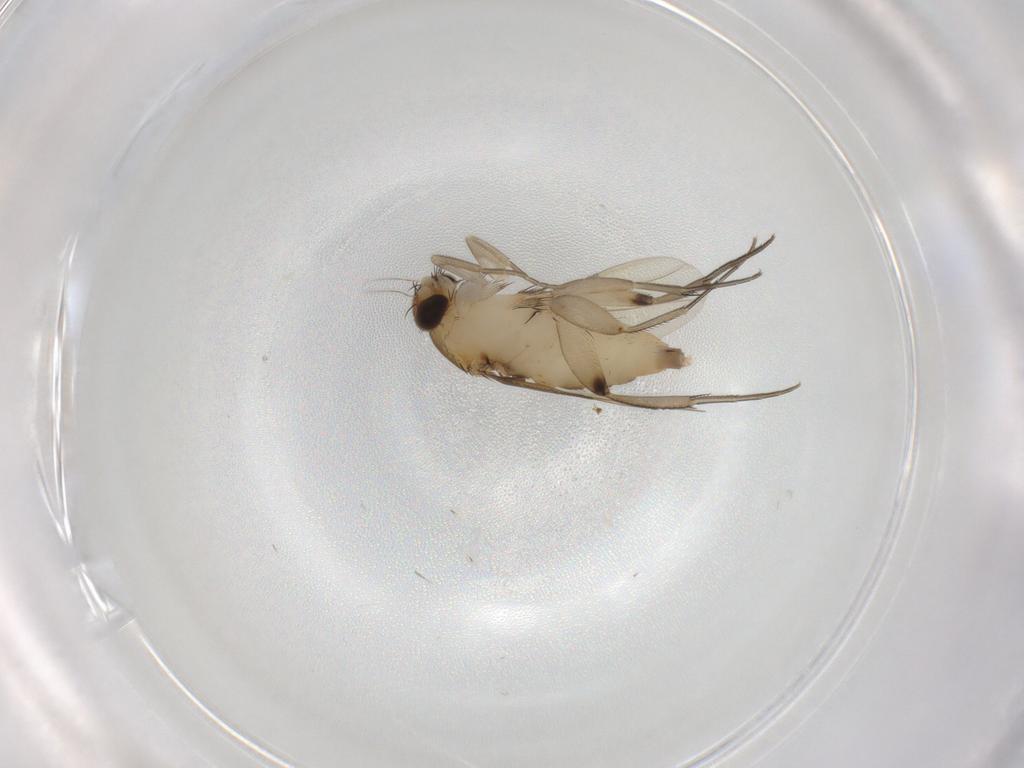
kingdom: Animalia
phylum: Arthropoda
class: Insecta
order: Diptera
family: Phoridae
